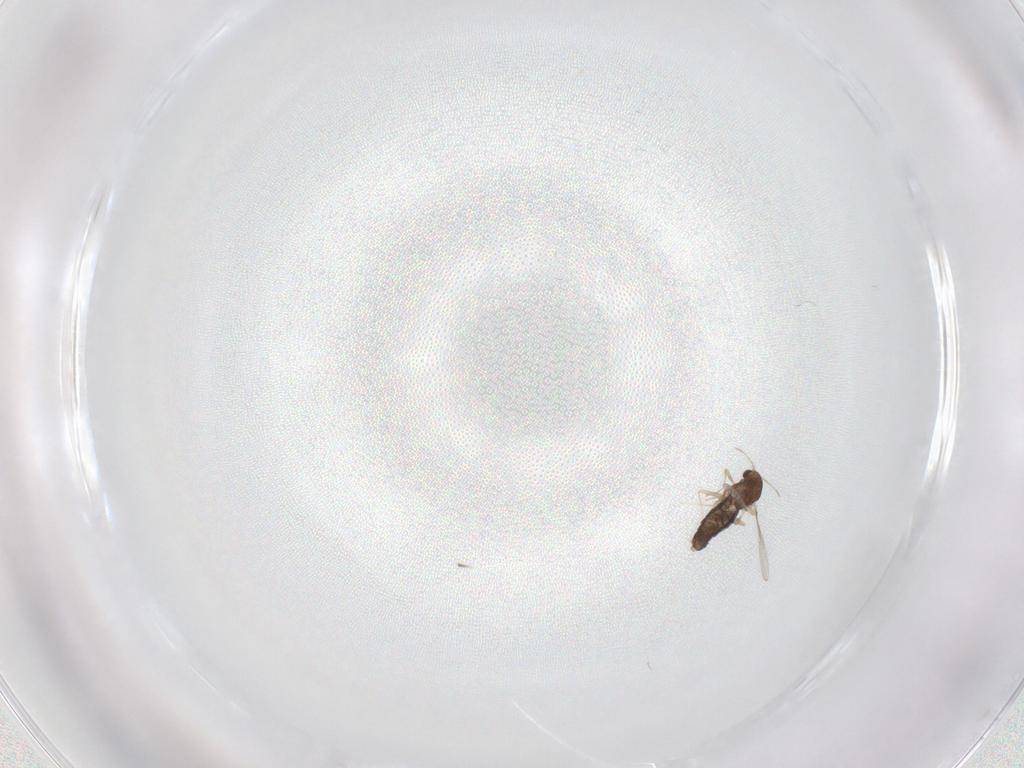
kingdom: Animalia
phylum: Arthropoda
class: Insecta
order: Diptera
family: Chironomidae
